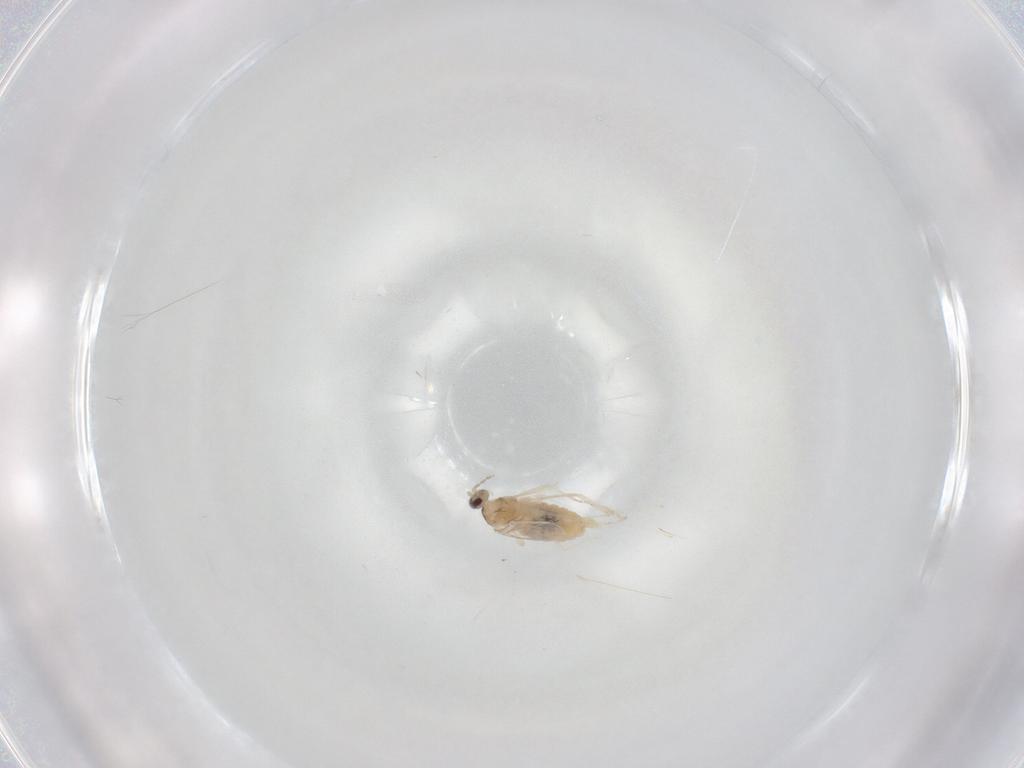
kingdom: Animalia
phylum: Arthropoda
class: Insecta
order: Diptera
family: Cecidomyiidae
